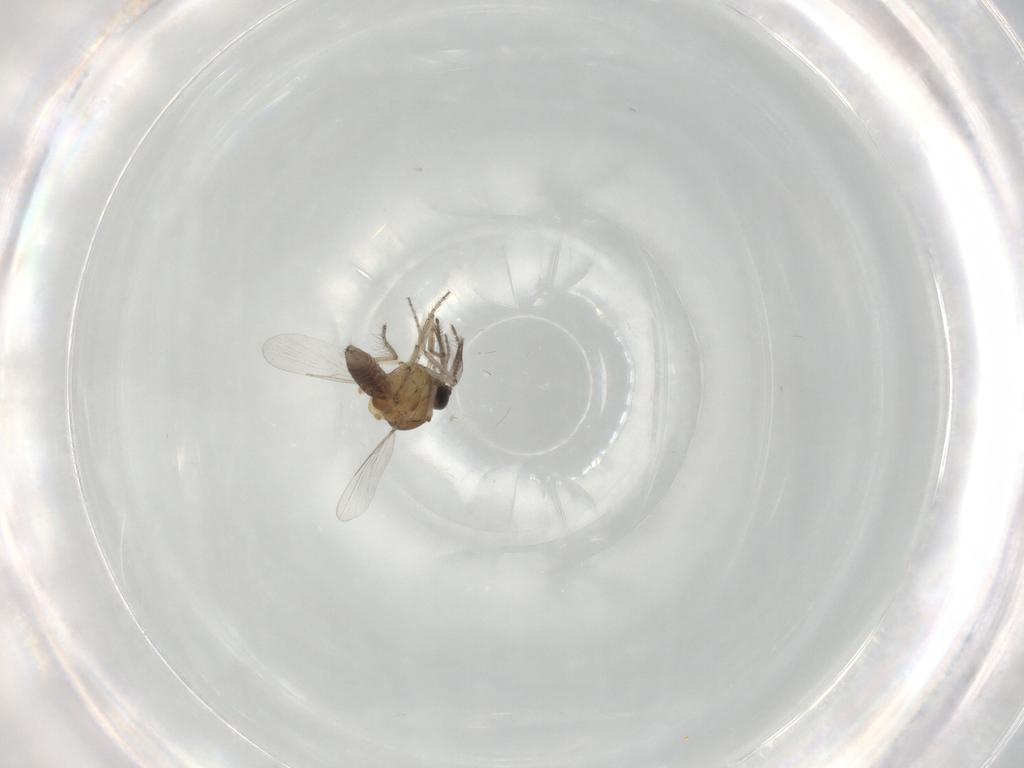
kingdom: Animalia
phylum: Arthropoda
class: Insecta
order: Diptera
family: Ceratopogonidae
